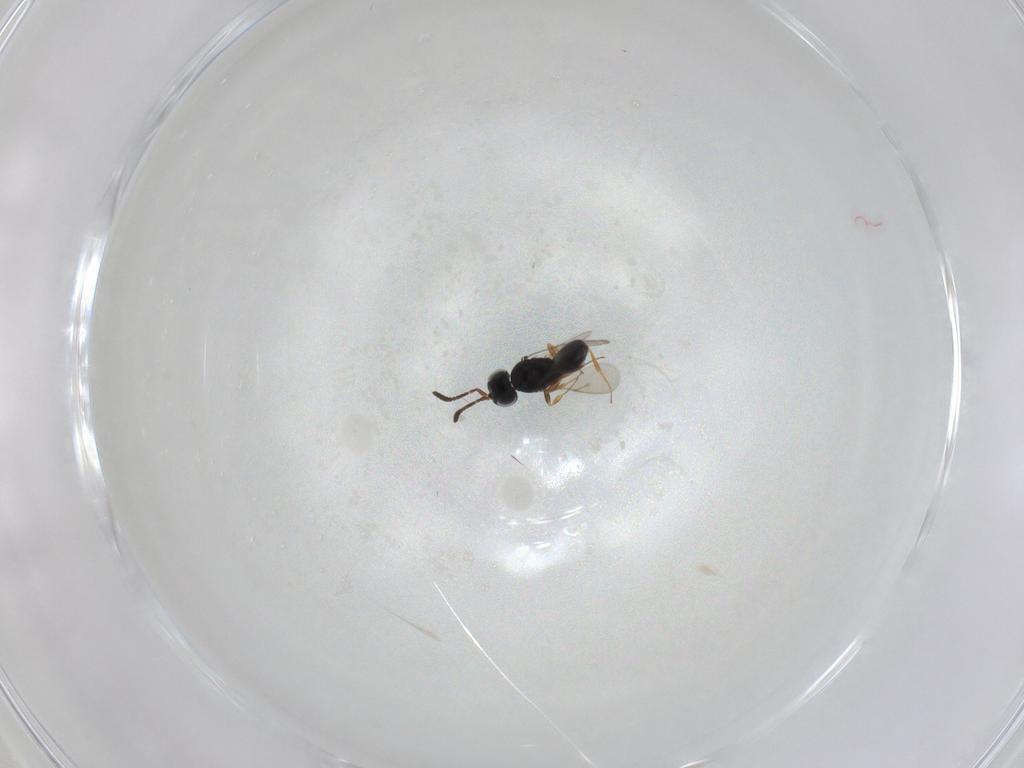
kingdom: Animalia
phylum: Arthropoda
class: Insecta
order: Hymenoptera
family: Scelionidae
